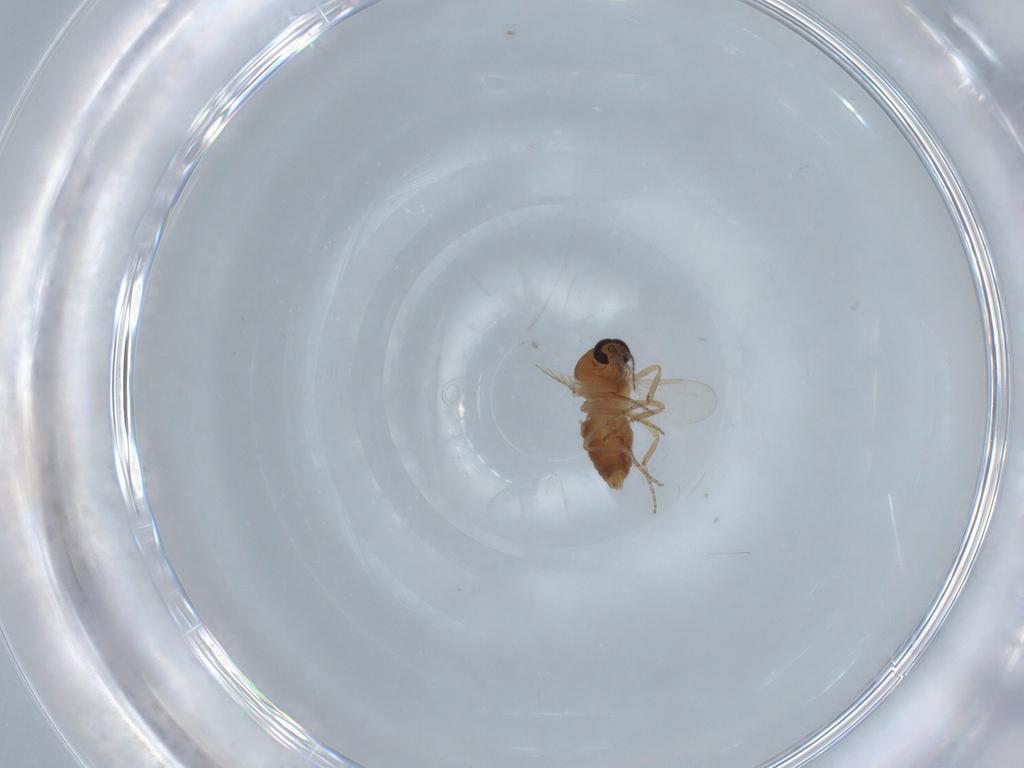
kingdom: Animalia
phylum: Arthropoda
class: Insecta
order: Diptera
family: Ceratopogonidae
